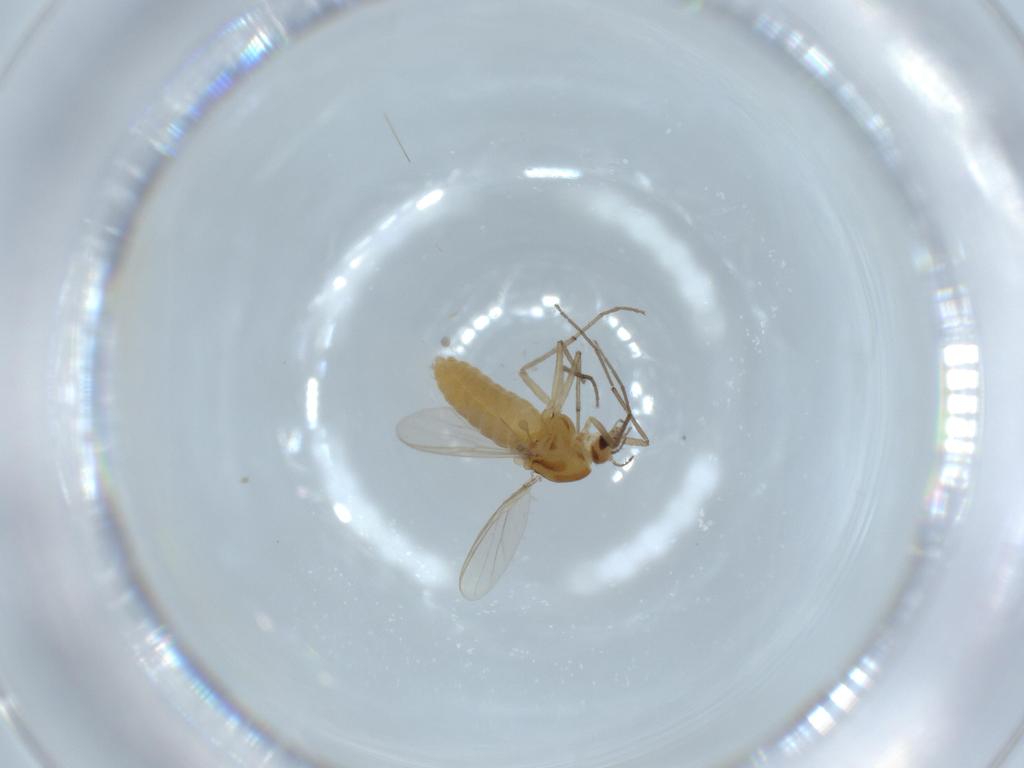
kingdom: Animalia
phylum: Arthropoda
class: Insecta
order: Diptera
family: Chironomidae
